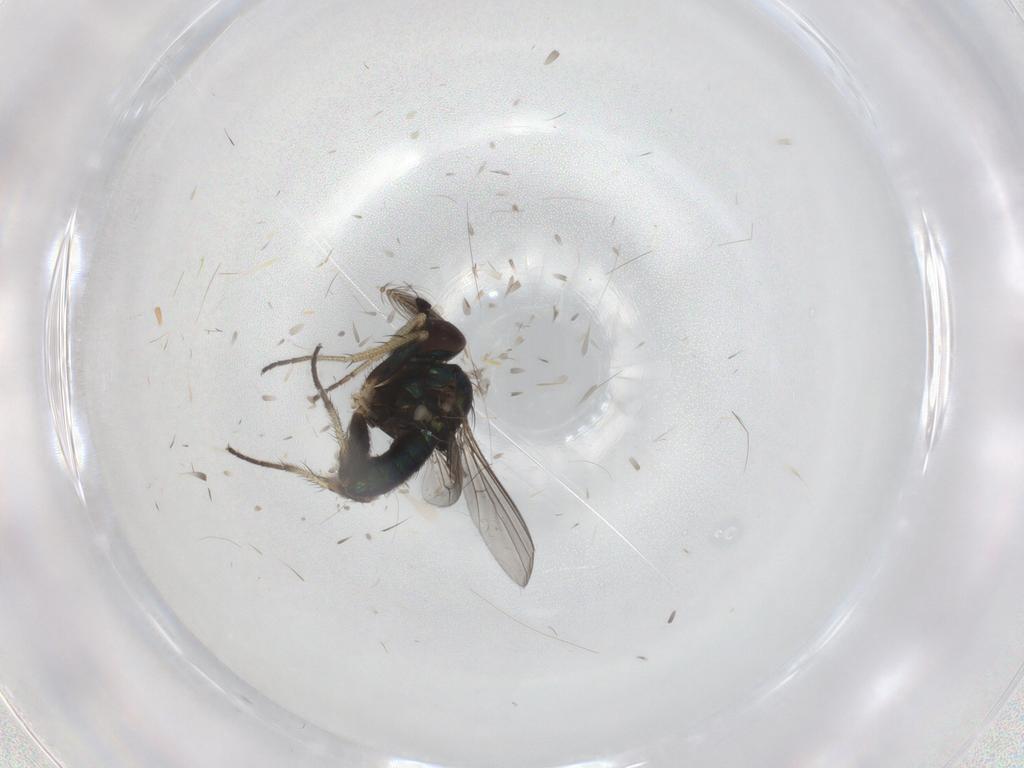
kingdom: Animalia
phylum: Arthropoda
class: Insecta
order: Diptera
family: Ceratopogonidae
